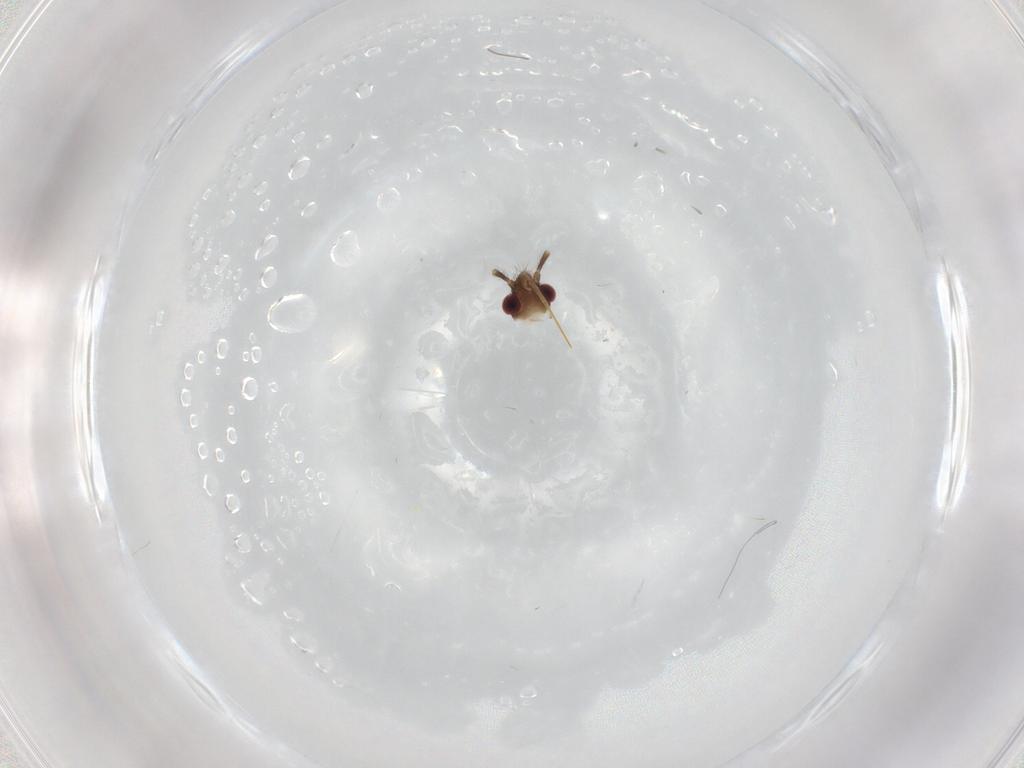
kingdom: Animalia
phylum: Arthropoda
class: Insecta
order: Hemiptera
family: Ceratocombidae
